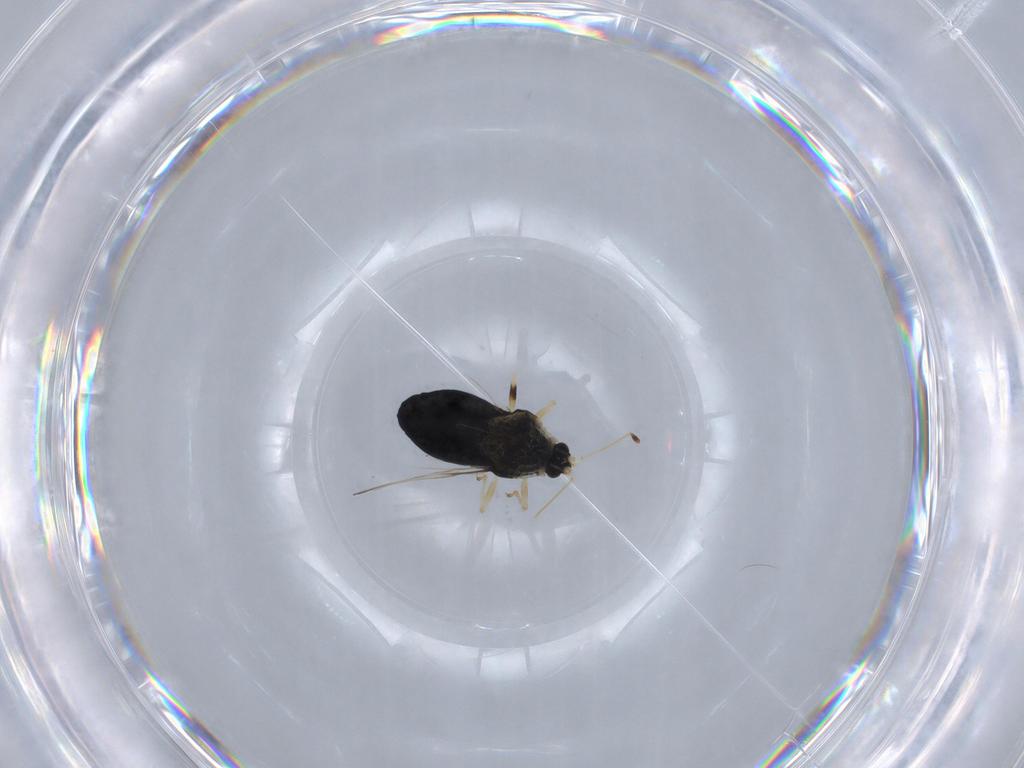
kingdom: Animalia
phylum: Arthropoda
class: Insecta
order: Hemiptera
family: Tingidae
